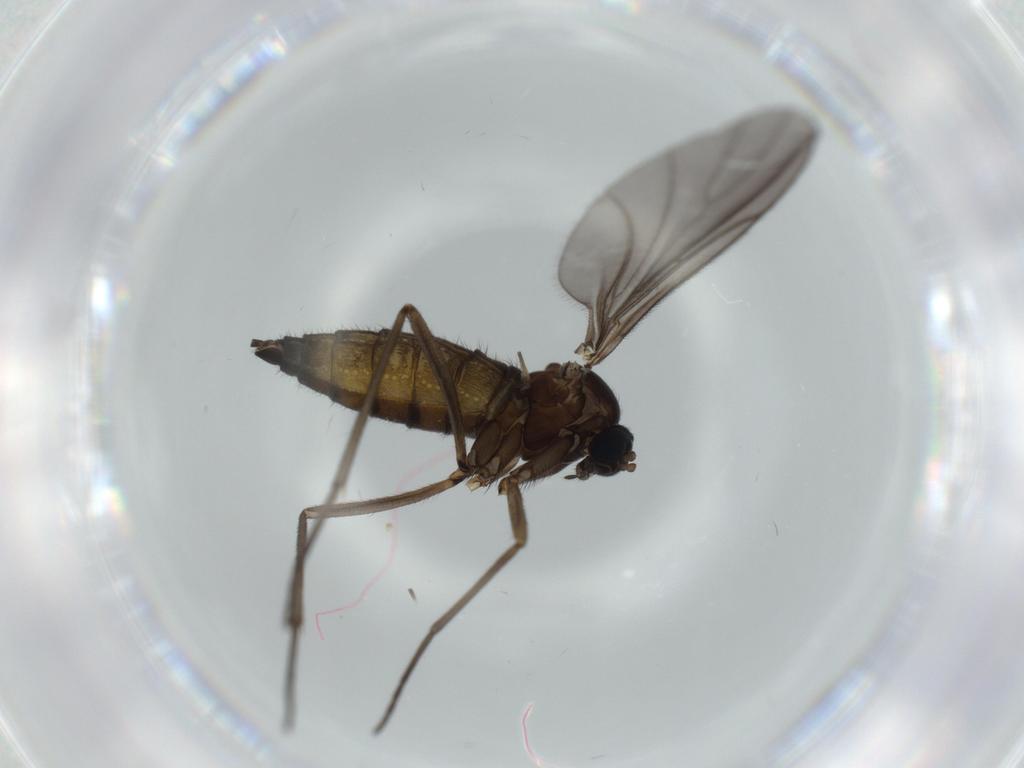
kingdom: Animalia
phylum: Arthropoda
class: Insecta
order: Diptera
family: Sciaridae
